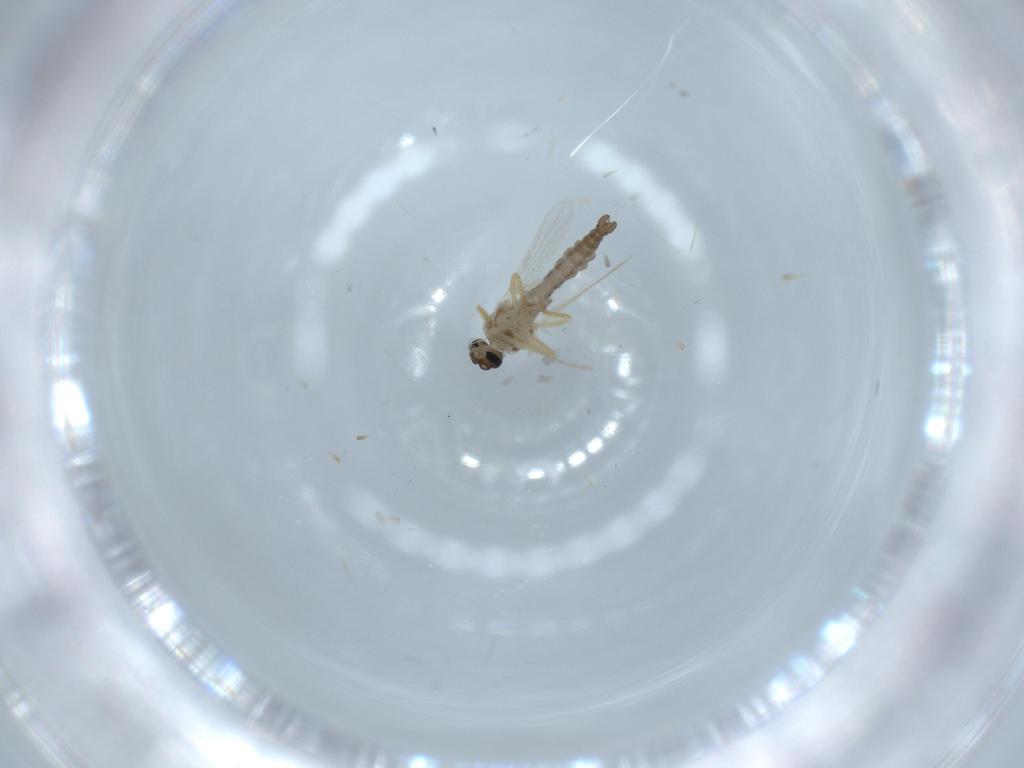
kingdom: Animalia
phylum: Arthropoda
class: Insecta
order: Diptera
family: Ceratopogonidae
